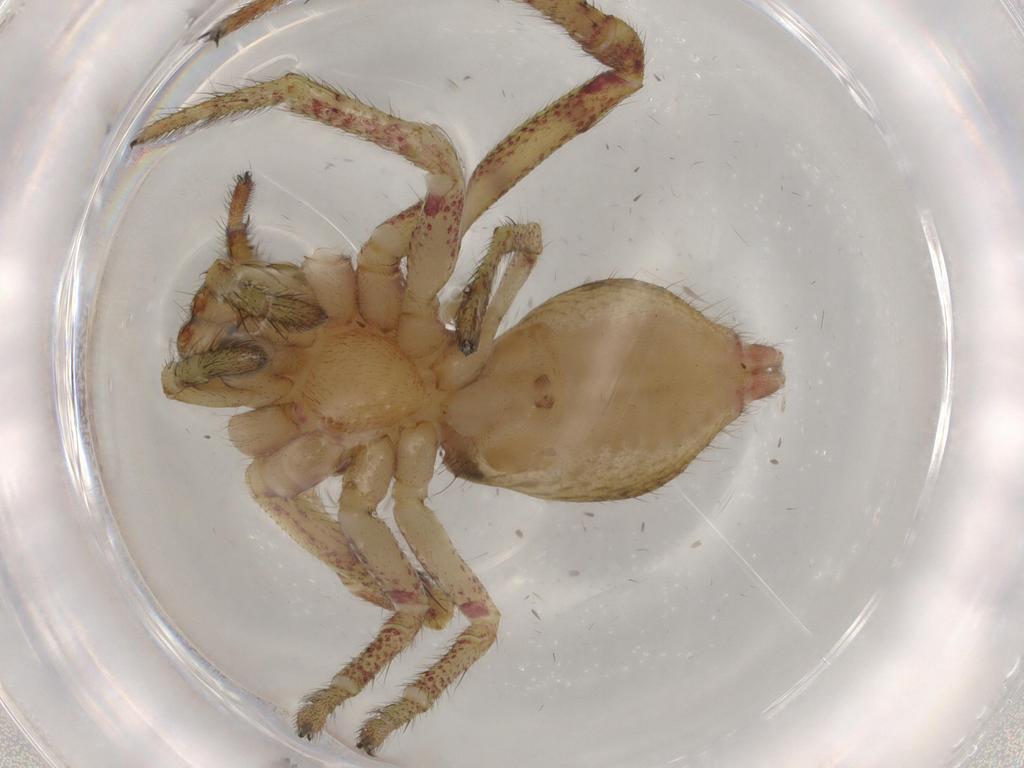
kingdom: Animalia
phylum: Arthropoda
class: Arachnida
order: Araneae
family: Thomisidae
